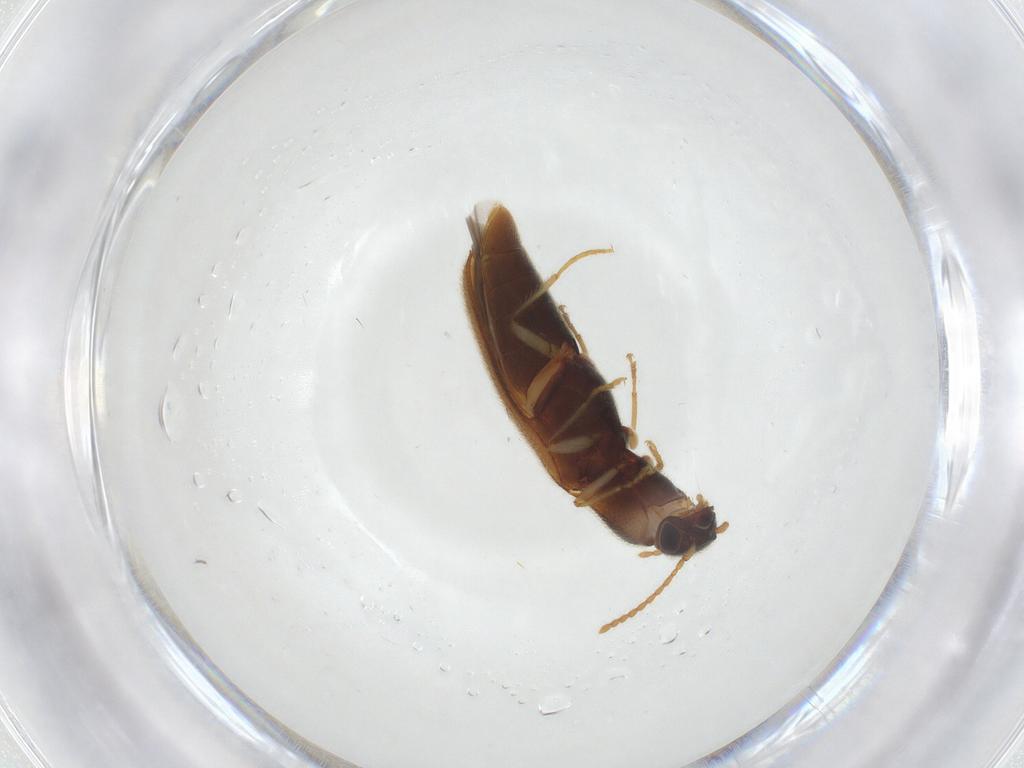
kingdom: Animalia
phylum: Arthropoda
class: Insecta
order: Coleoptera
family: Elateridae
